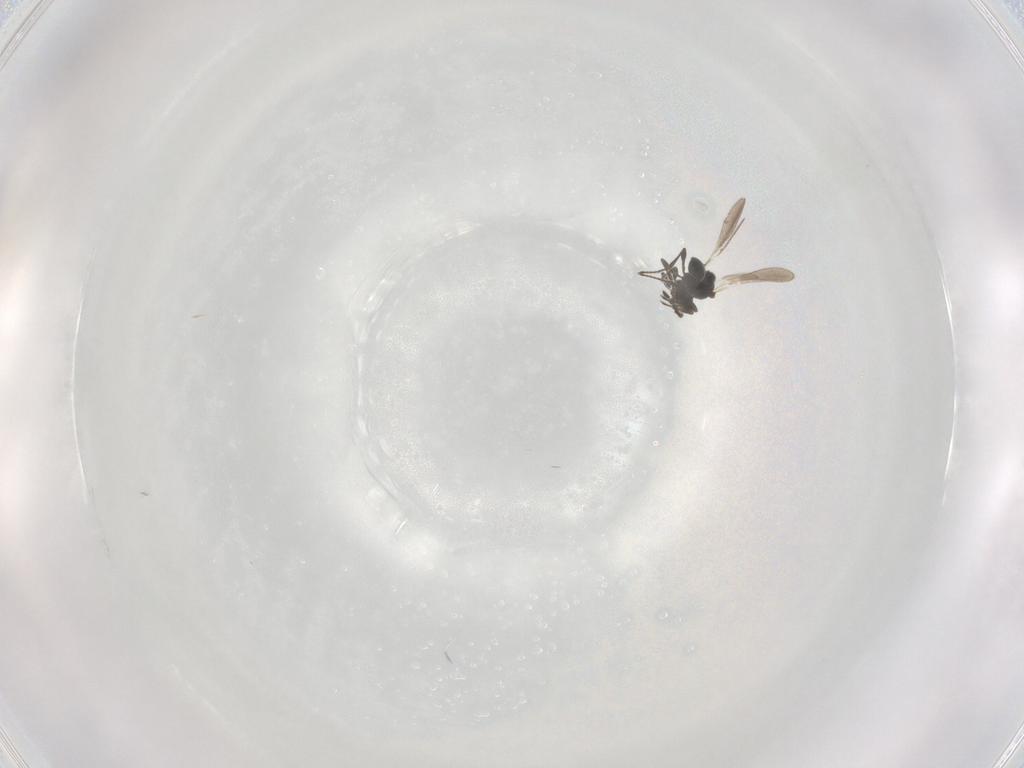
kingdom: Animalia
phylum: Arthropoda
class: Insecta
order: Hymenoptera
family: Platygastridae
